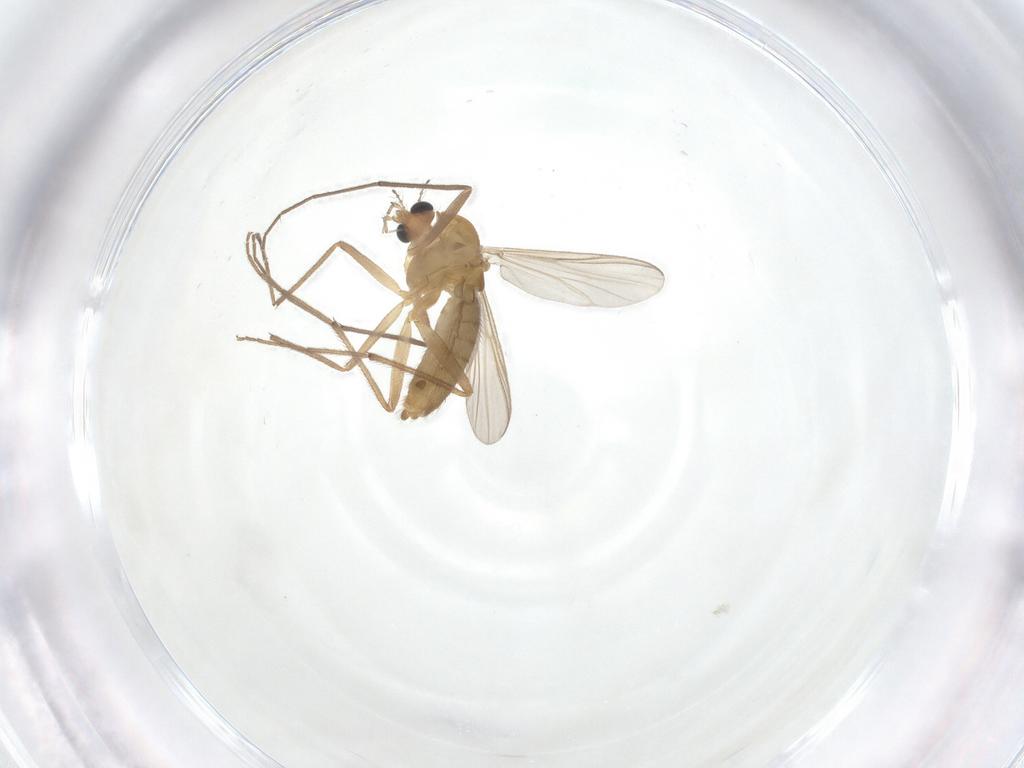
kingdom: Animalia
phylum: Arthropoda
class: Insecta
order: Diptera
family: Chironomidae
